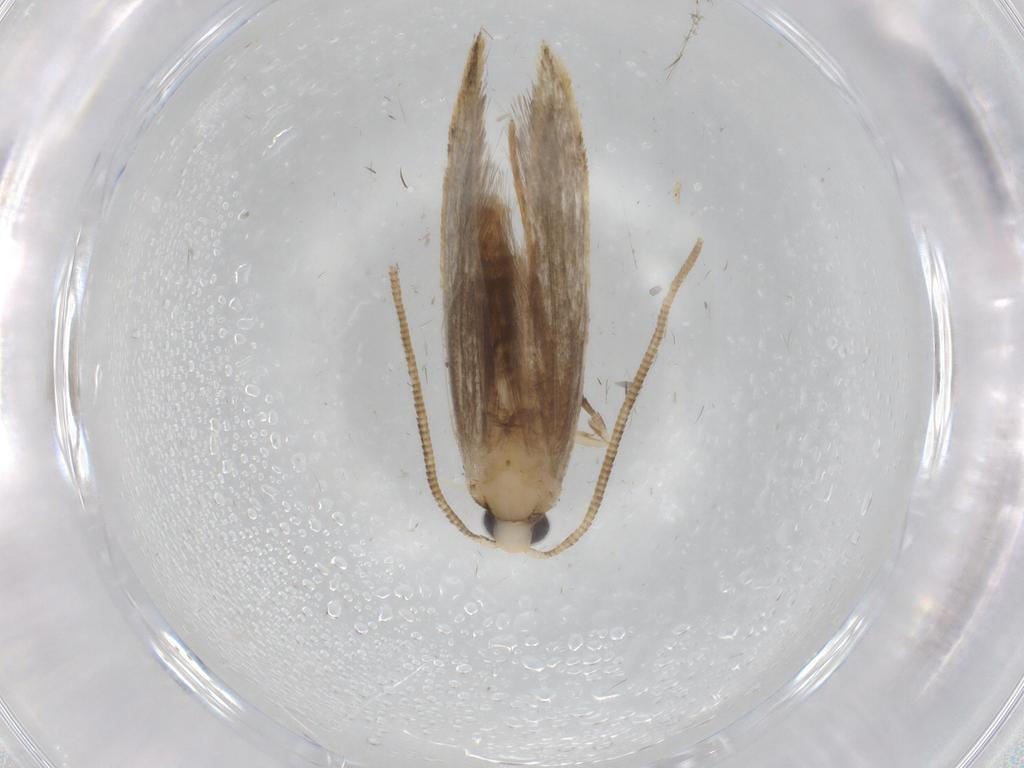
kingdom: Animalia
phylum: Arthropoda
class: Insecta
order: Lepidoptera
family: Tineidae
